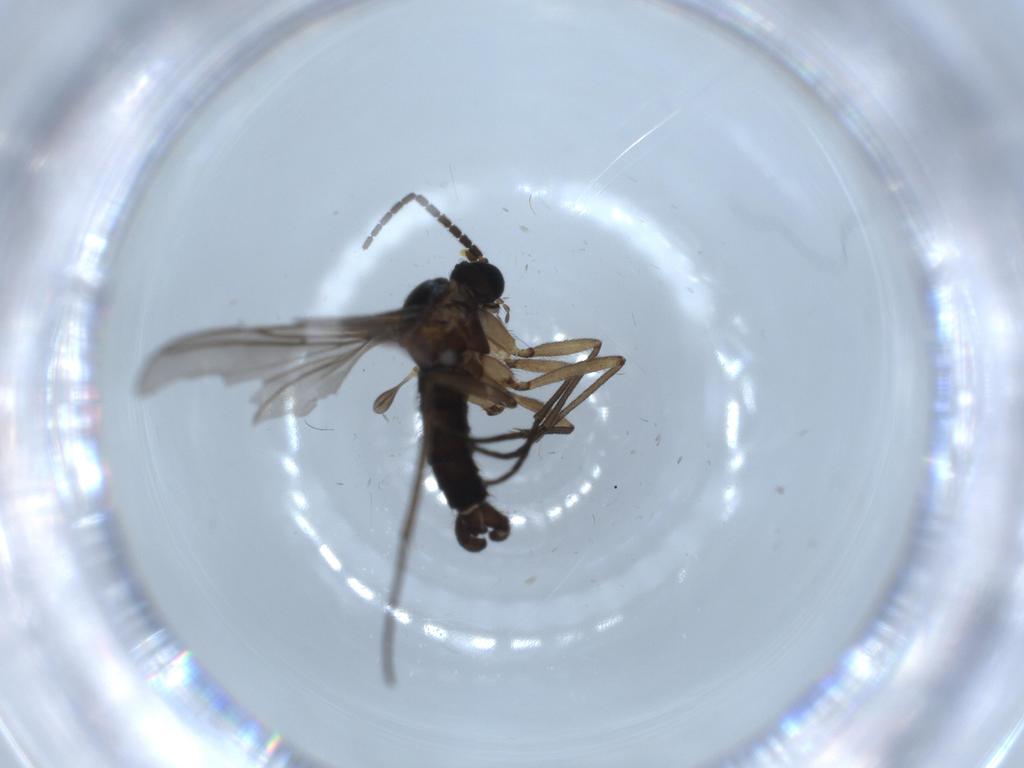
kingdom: Animalia
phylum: Arthropoda
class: Insecta
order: Diptera
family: Sciaridae
